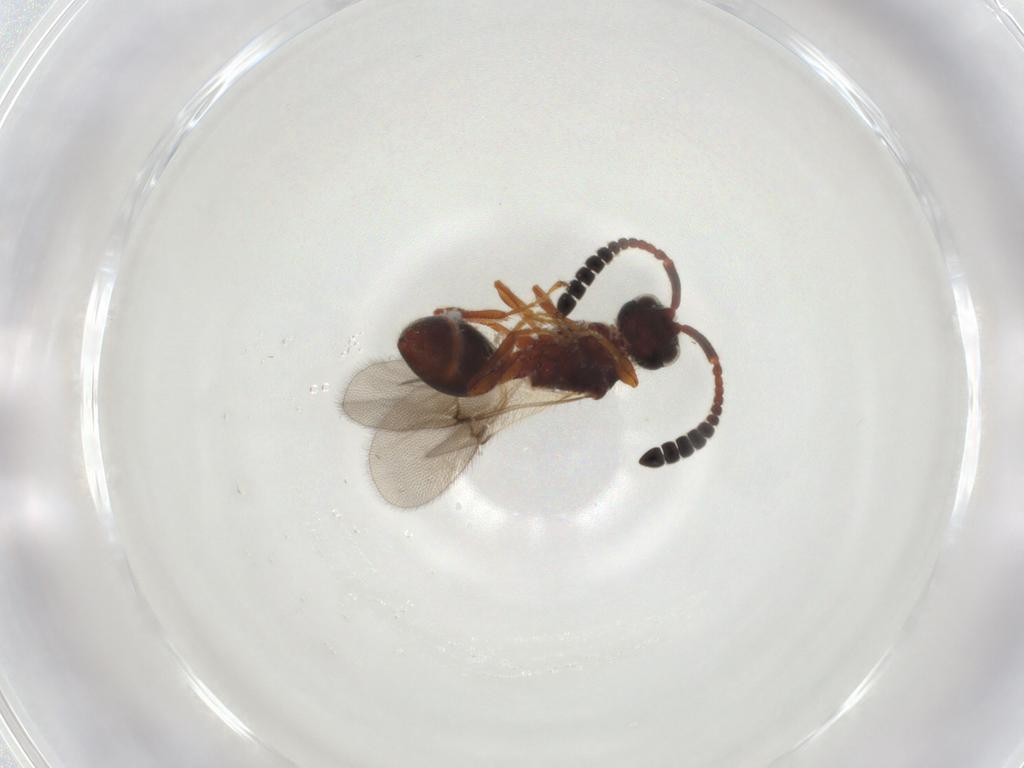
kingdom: Animalia
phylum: Arthropoda
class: Insecta
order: Hymenoptera
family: Diapriidae
